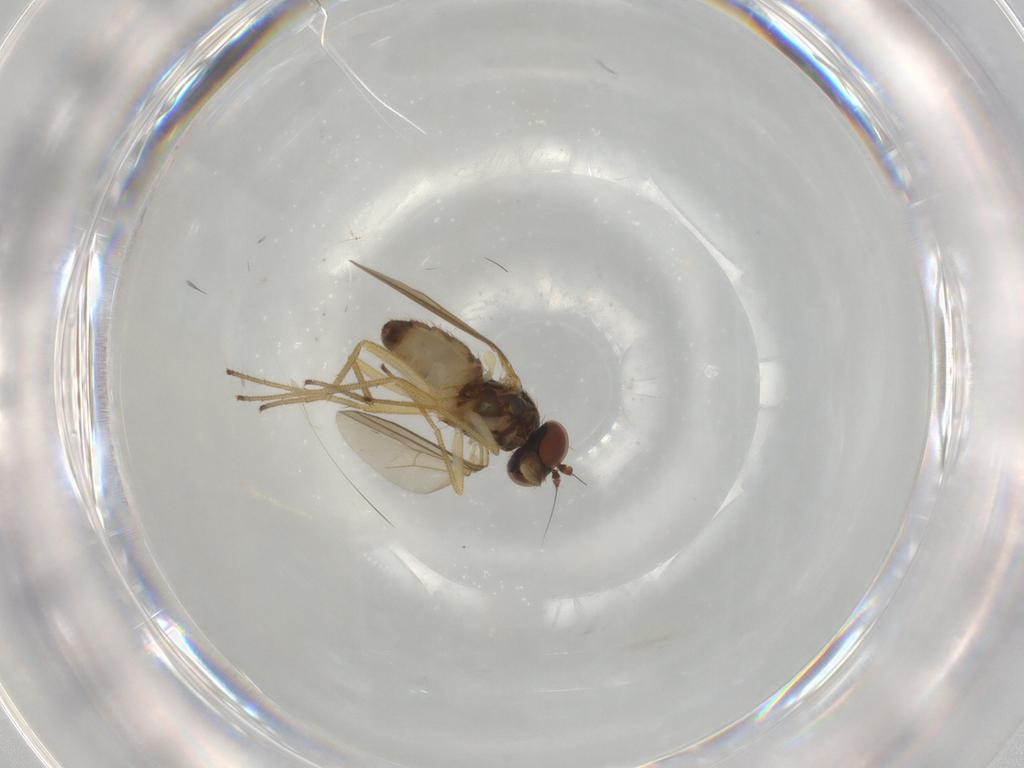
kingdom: Animalia
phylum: Arthropoda
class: Insecta
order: Diptera
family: Dolichopodidae
